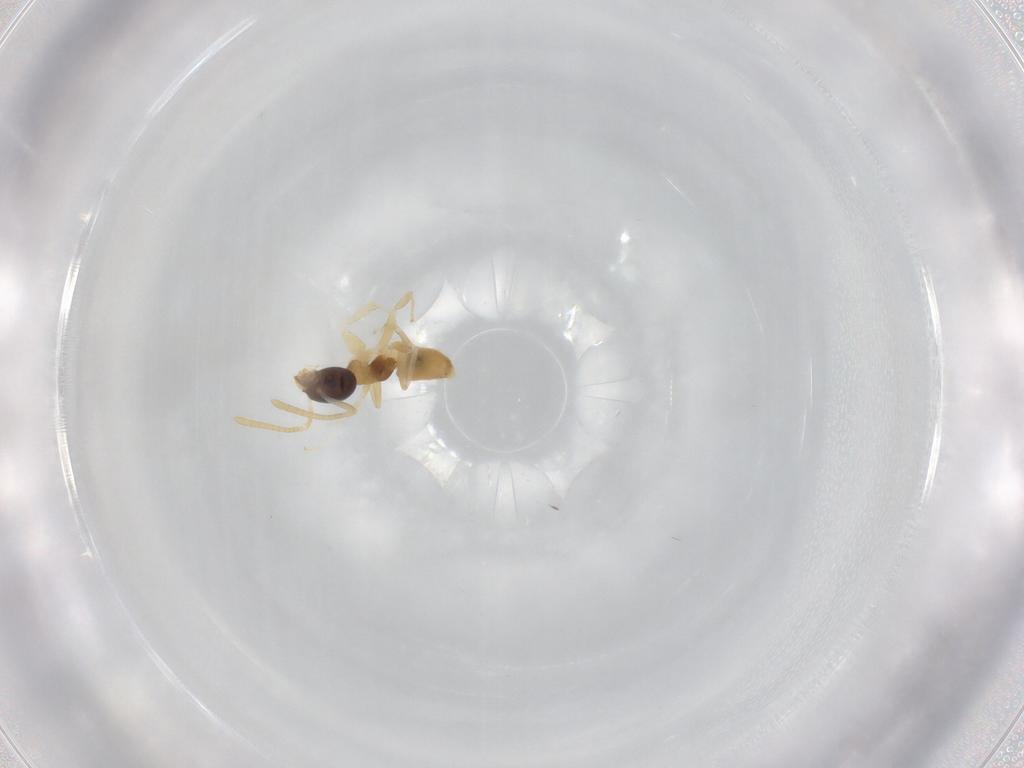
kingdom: Animalia
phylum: Arthropoda
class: Insecta
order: Hymenoptera
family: Formicidae
